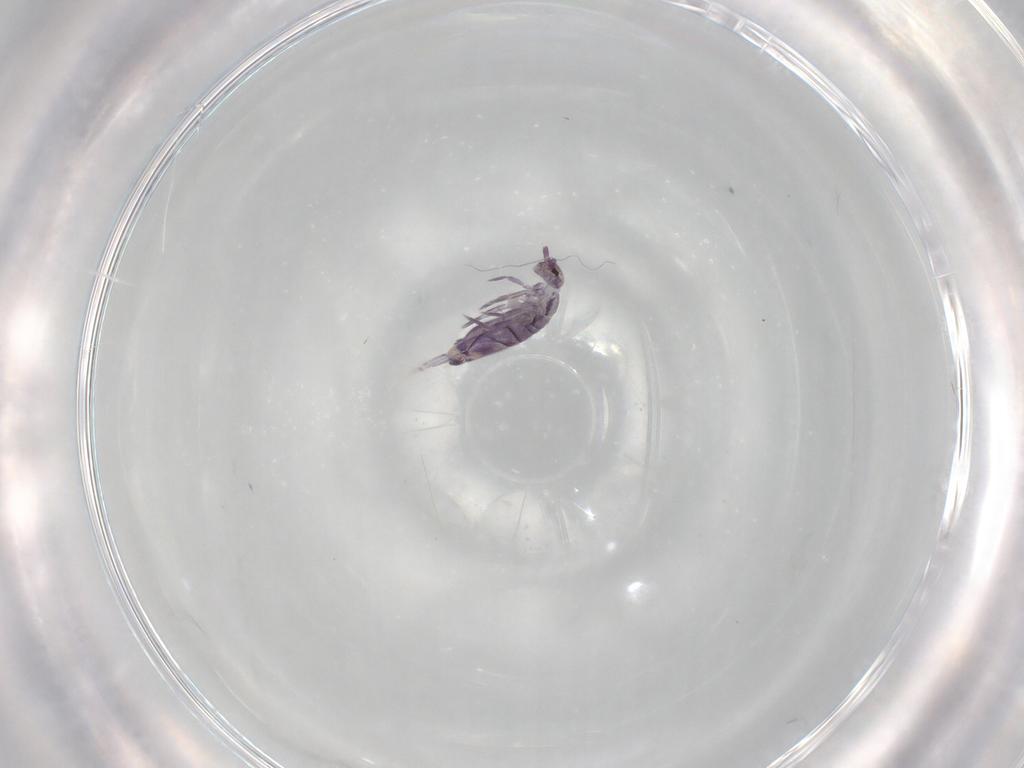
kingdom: Animalia
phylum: Arthropoda
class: Collembola
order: Entomobryomorpha
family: Entomobryidae
